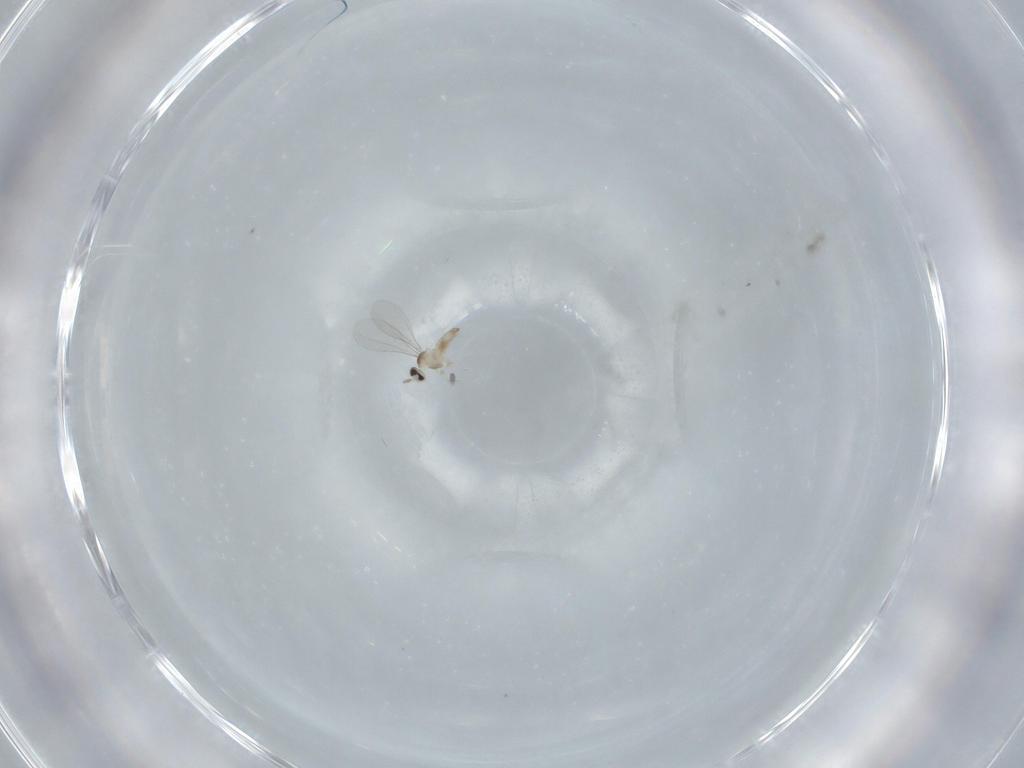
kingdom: Animalia
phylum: Arthropoda
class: Insecta
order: Diptera
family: Cecidomyiidae
